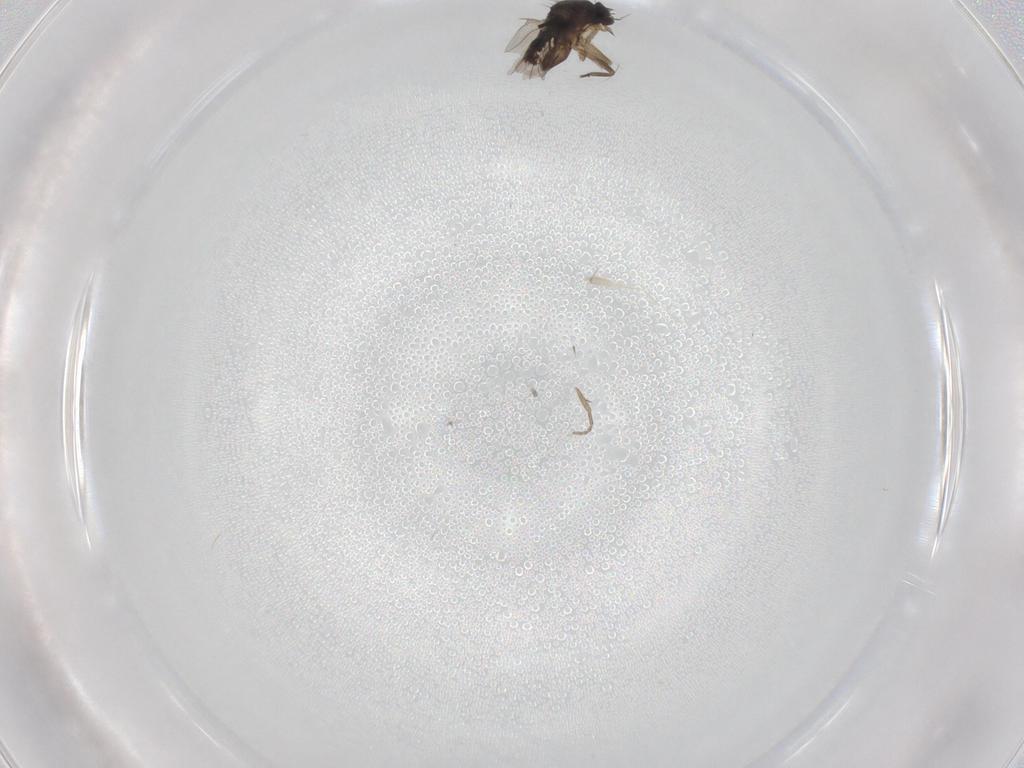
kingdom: Animalia
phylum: Arthropoda
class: Insecta
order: Diptera
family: Phoridae
